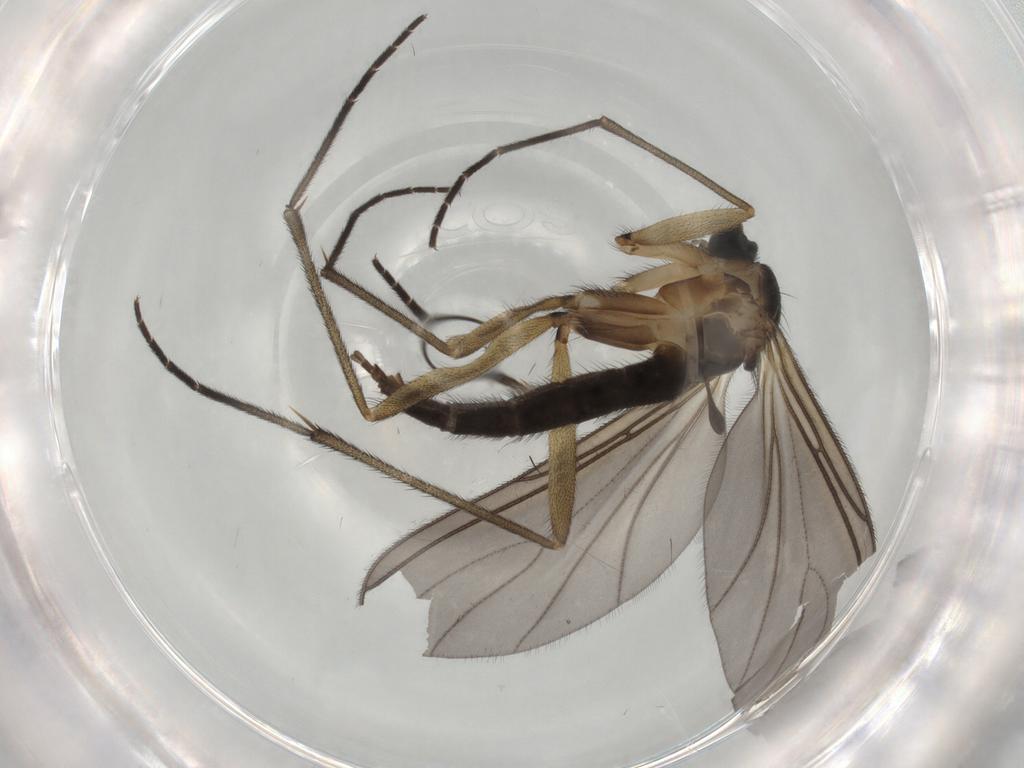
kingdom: Animalia
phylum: Arthropoda
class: Insecta
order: Diptera
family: Sciaridae
